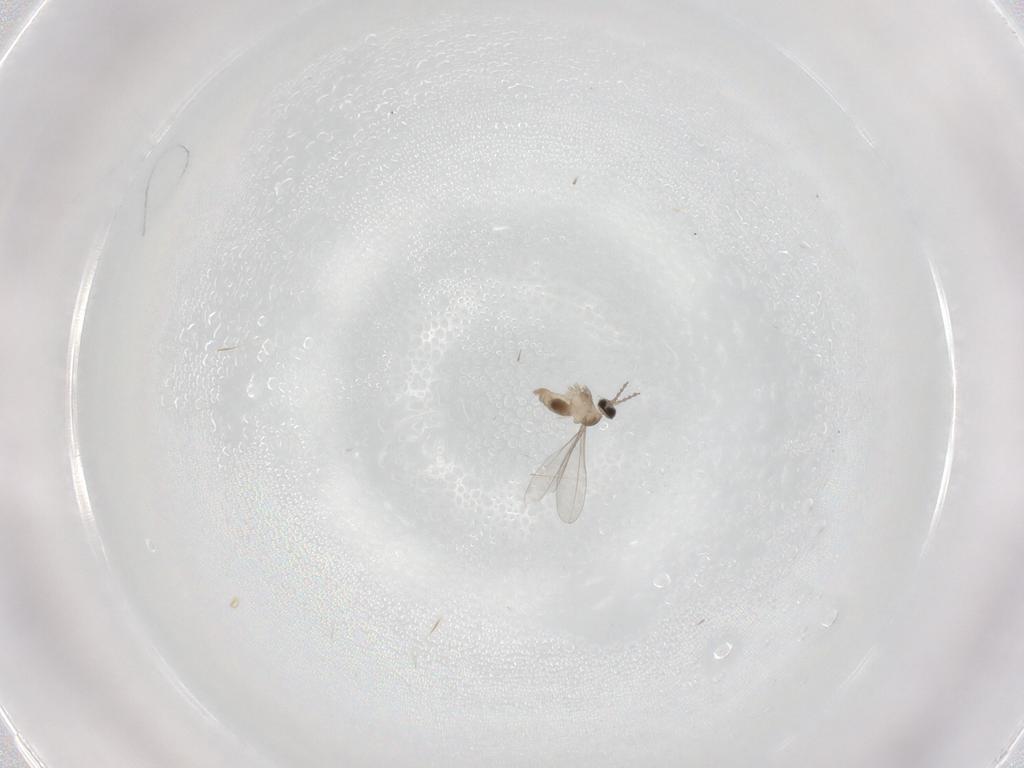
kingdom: Animalia
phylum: Arthropoda
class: Insecta
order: Diptera
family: Cecidomyiidae
